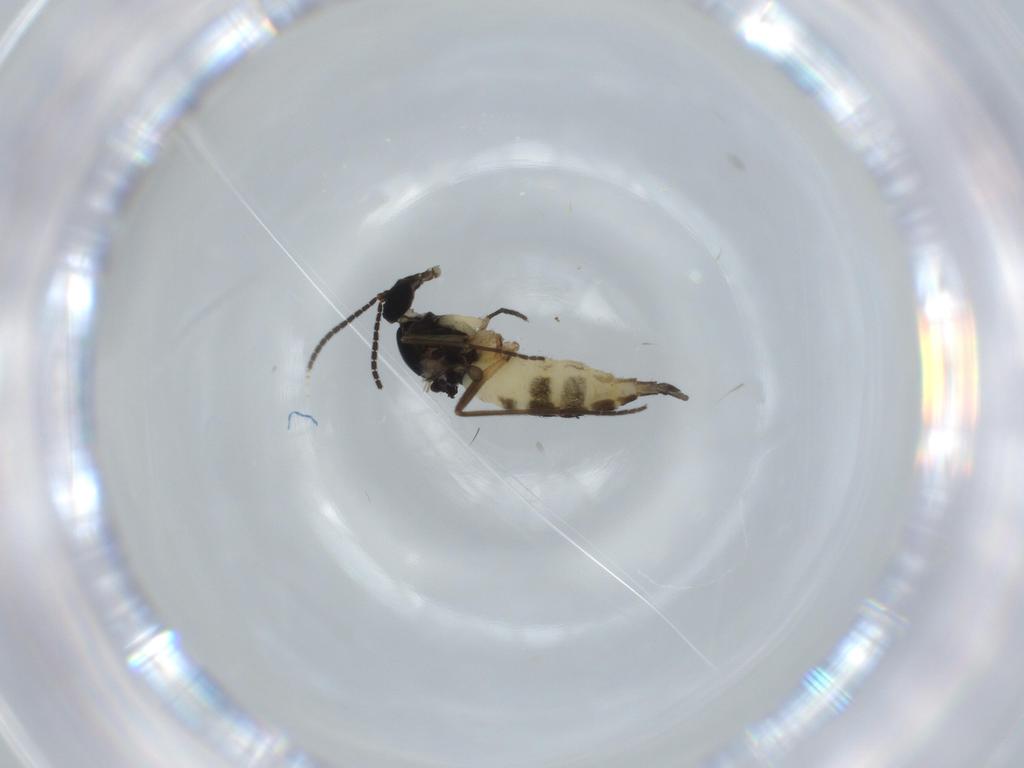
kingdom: Animalia
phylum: Arthropoda
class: Insecta
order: Diptera
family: Sciaridae
